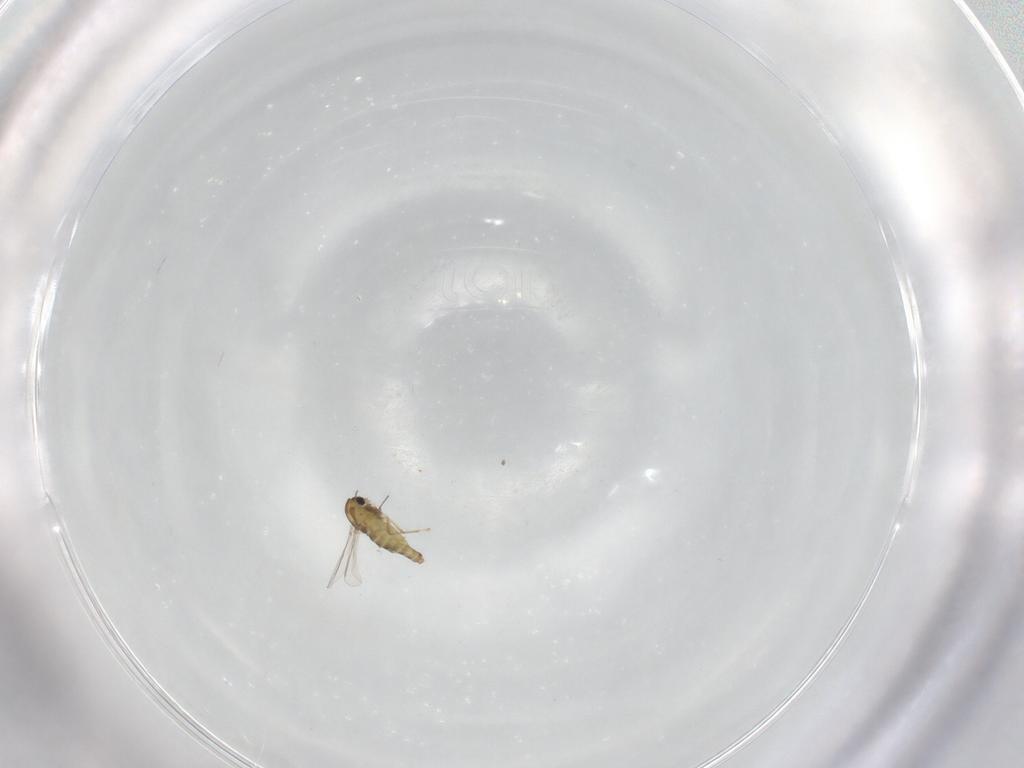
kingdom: Animalia
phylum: Arthropoda
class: Insecta
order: Diptera
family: Chironomidae
